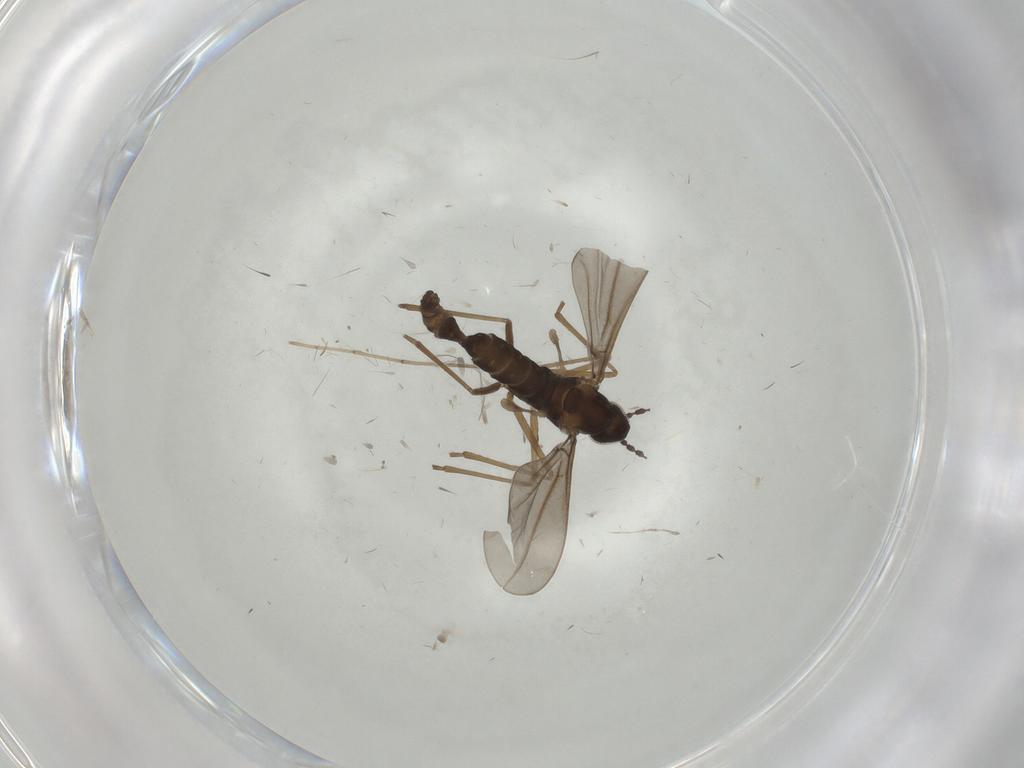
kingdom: Animalia
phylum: Arthropoda
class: Insecta
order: Diptera
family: Cecidomyiidae
